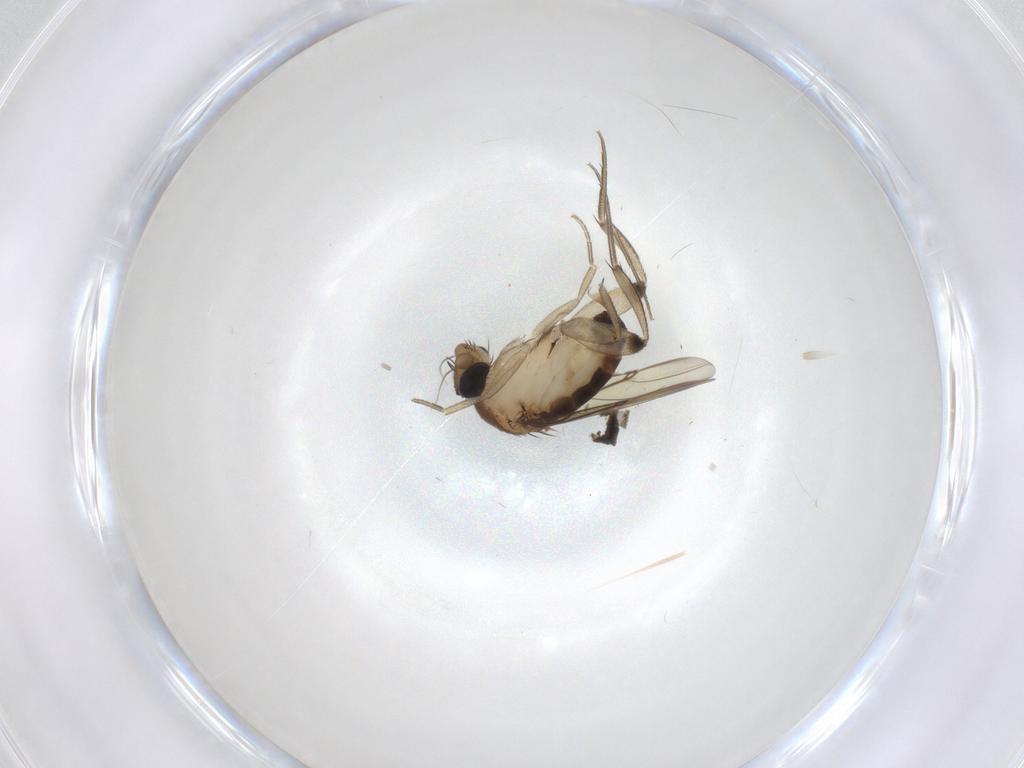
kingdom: Animalia
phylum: Arthropoda
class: Insecta
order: Diptera
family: Phoridae
